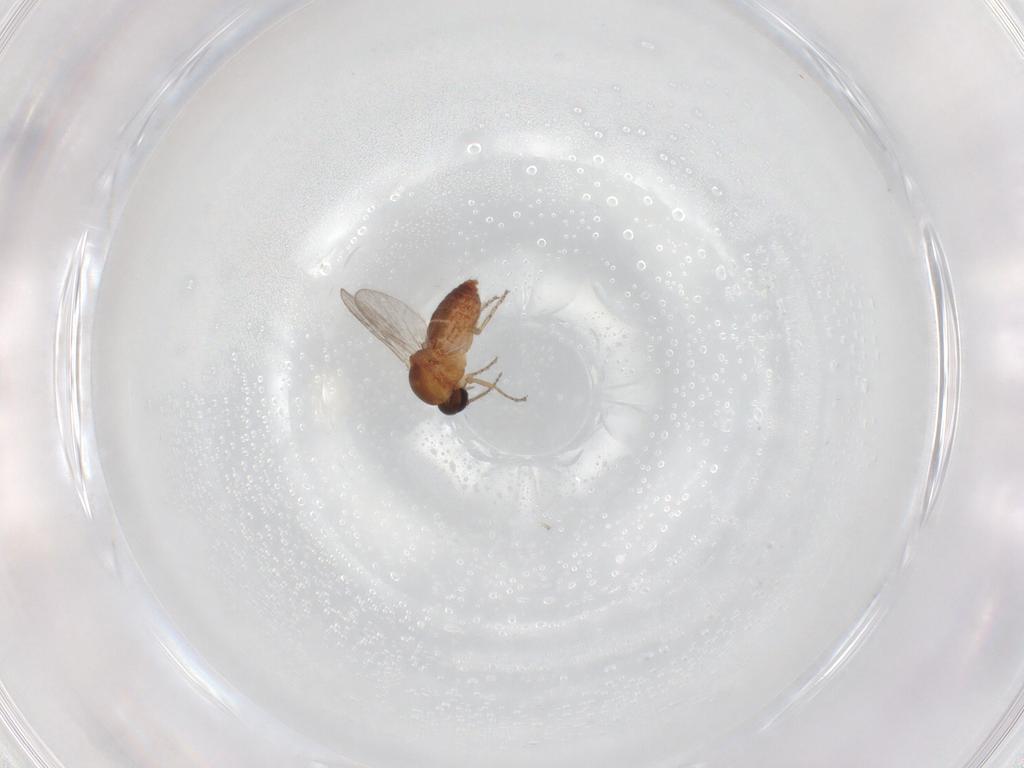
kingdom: Animalia
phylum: Arthropoda
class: Insecta
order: Diptera
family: Ceratopogonidae
